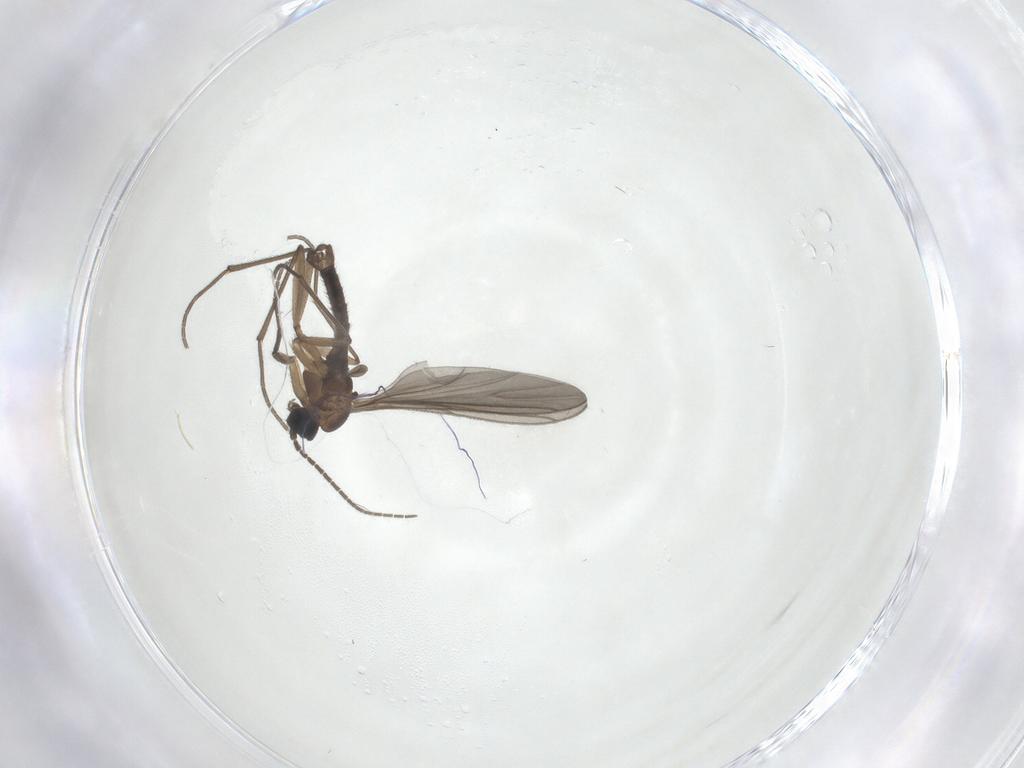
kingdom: Animalia
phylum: Arthropoda
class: Insecta
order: Diptera
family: Sciaridae
